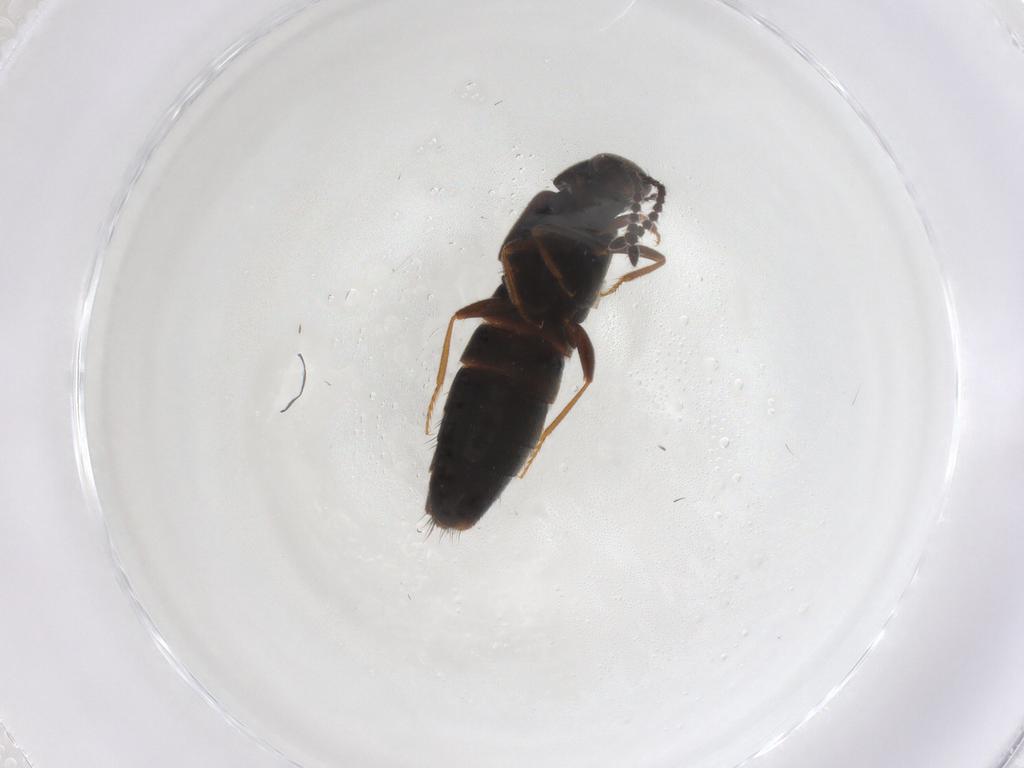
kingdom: Animalia
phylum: Arthropoda
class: Insecta
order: Coleoptera
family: Staphylinidae
